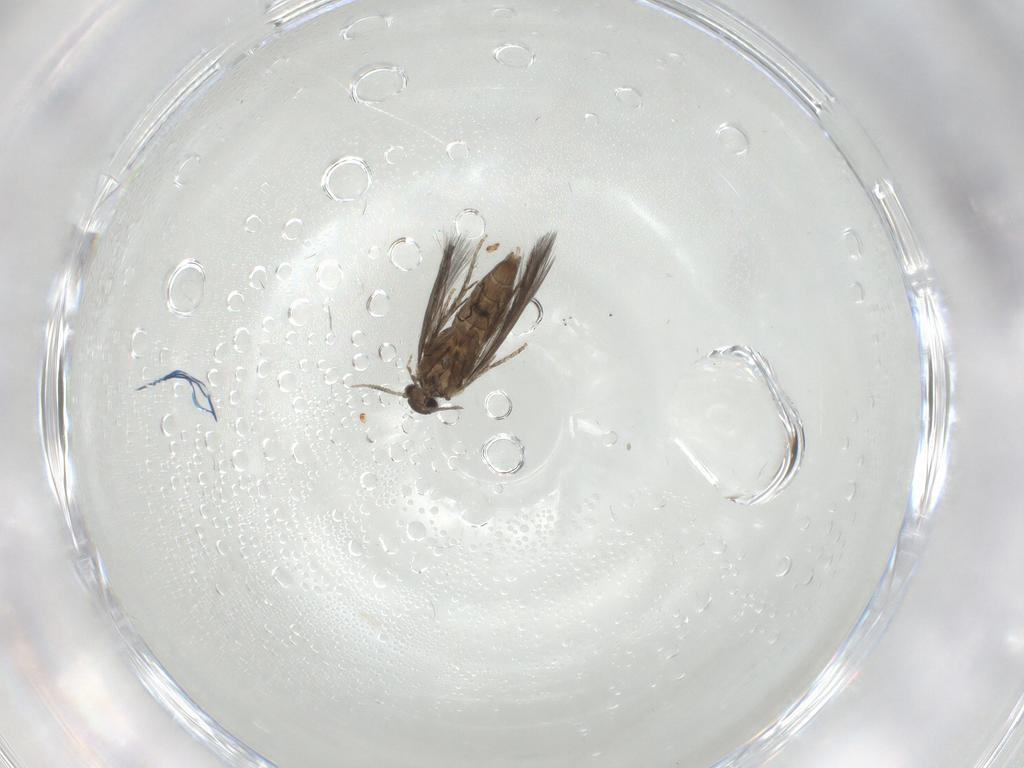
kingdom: Animalia
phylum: Arthropoda
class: Insecta
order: Trichoptera
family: Hydroptilidae
